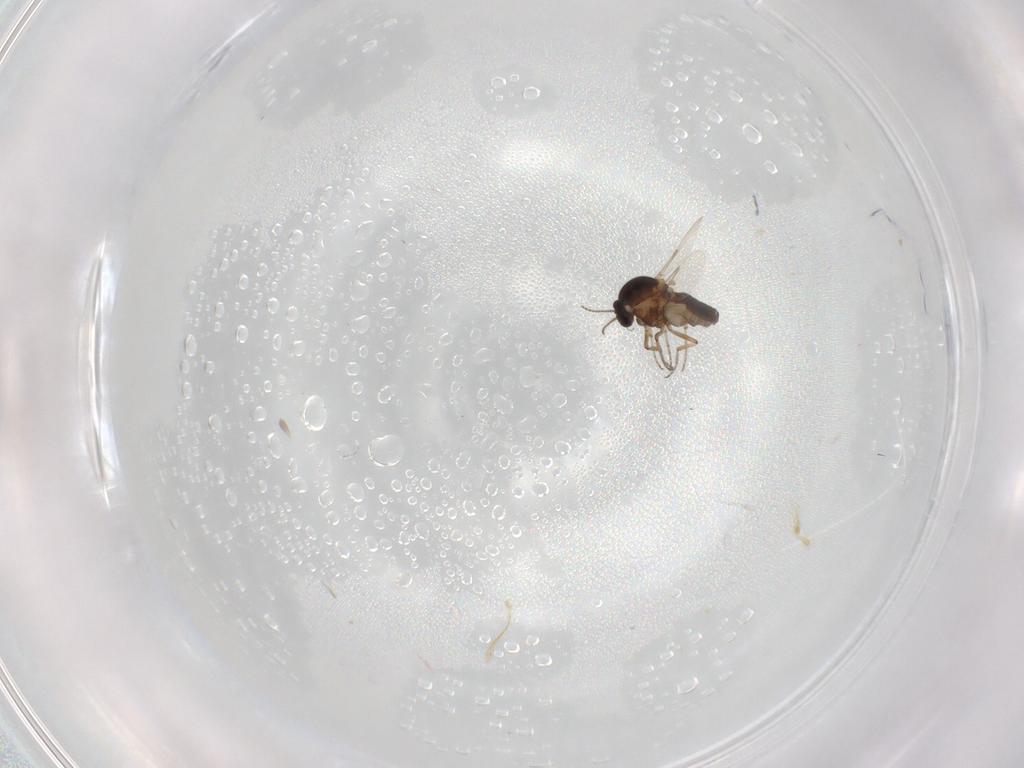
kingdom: Animalia
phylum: Arthropoda
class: Insecta
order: Diptera
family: Ceratopogonidae
